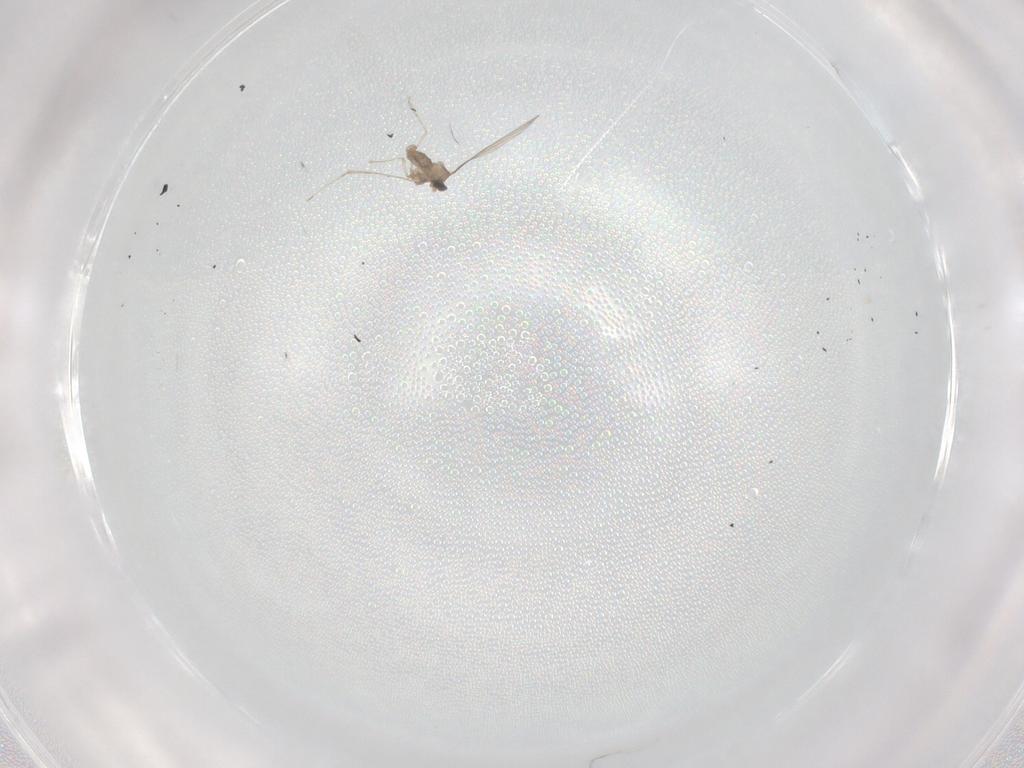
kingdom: Animalia
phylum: Arthropoda
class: Insecta
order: Diptera
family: Cecidomyiidae
